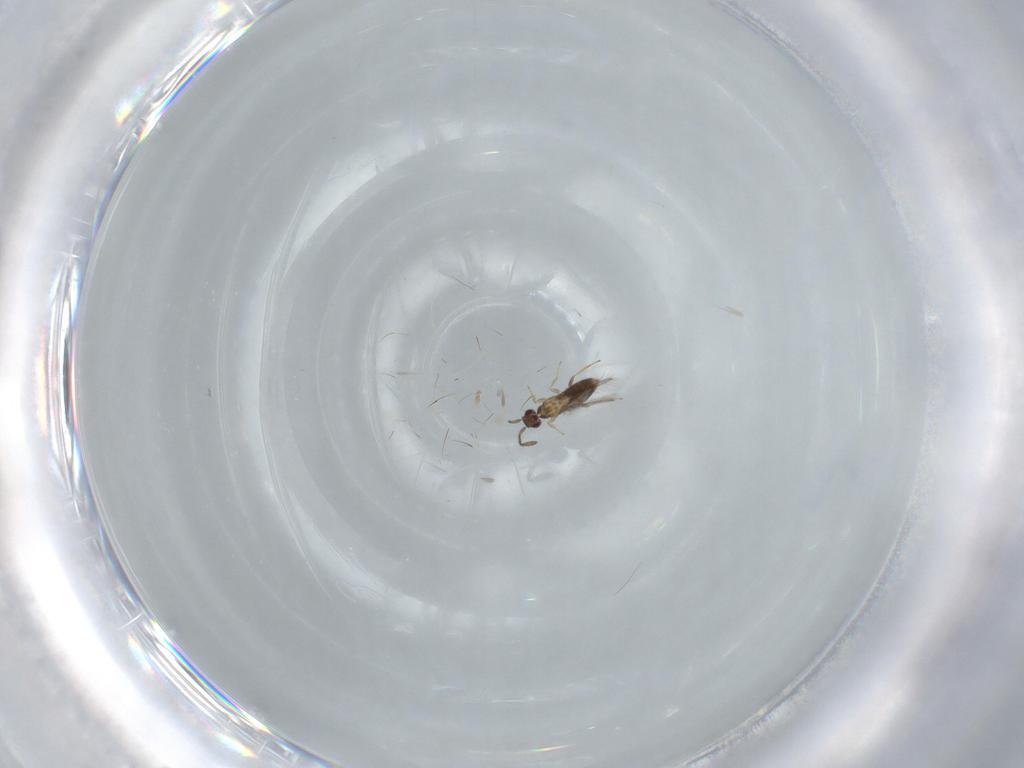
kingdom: Animalia
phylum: Arthropoda
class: Insecta
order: Hymenoptera
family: Mymaridae
